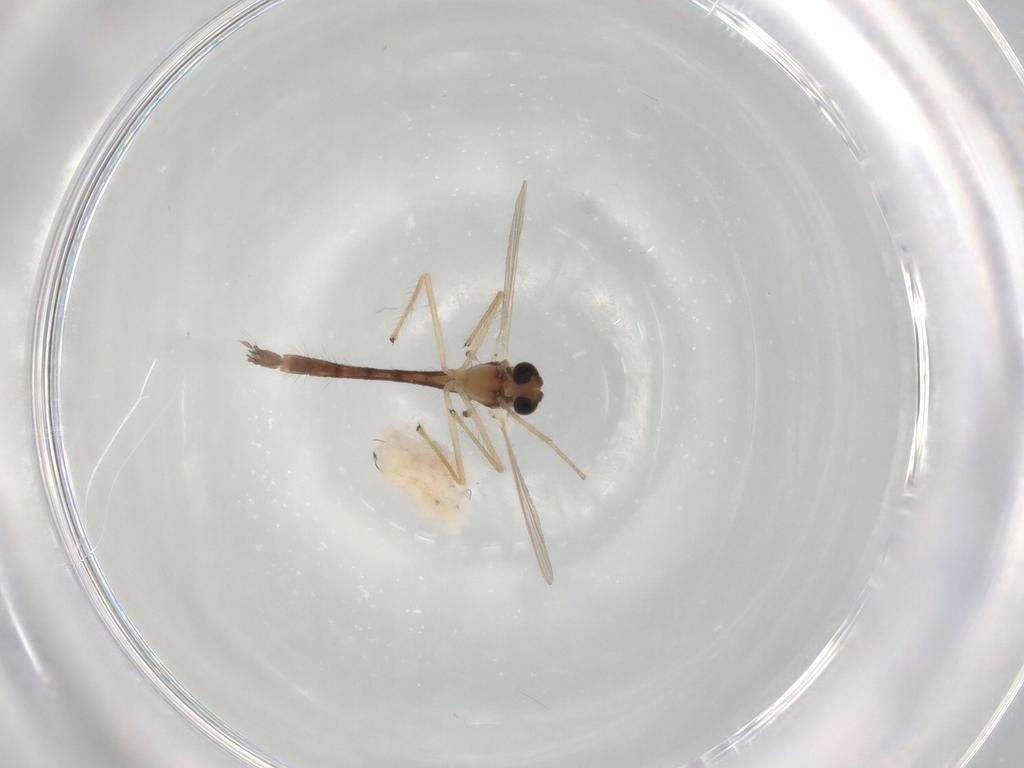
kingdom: Animalia
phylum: Arthropoda
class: Insecta
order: Diptera
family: Chironomidae
